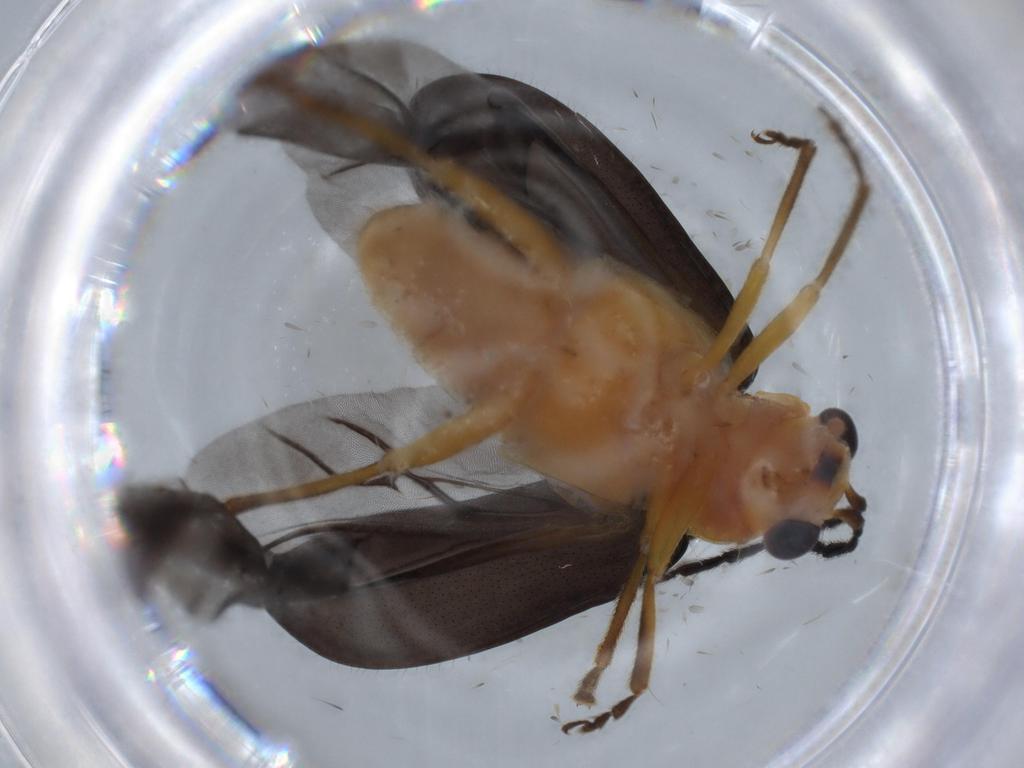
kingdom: Animalia
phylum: Arthropoda
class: Insecta
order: Coleoptera
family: Chrysomelidae
